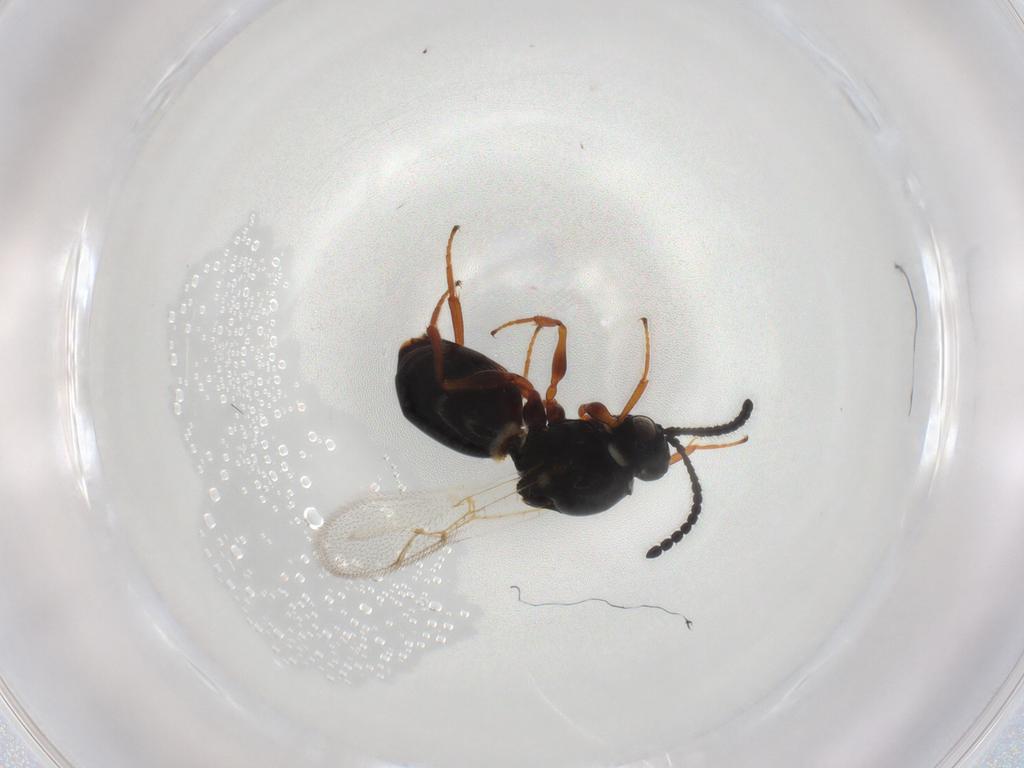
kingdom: Animalia
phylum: Arthropoda
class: Insecta
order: Hymenoptera
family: Figitidae
